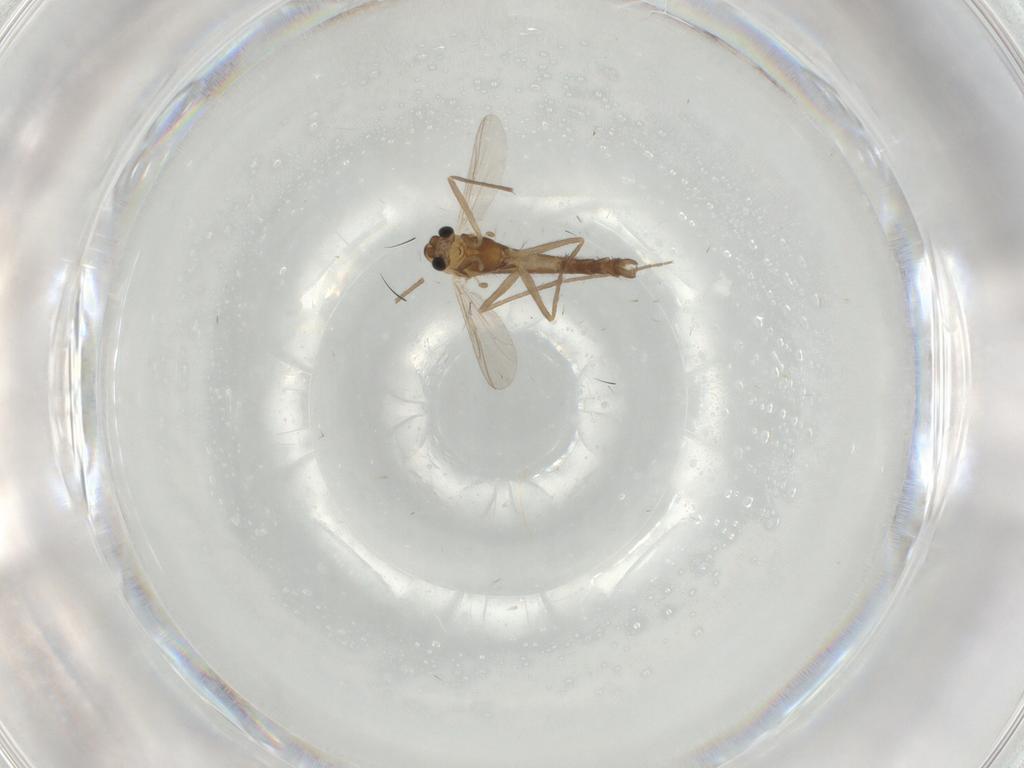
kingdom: Animalia
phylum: Arthropoda
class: Insecta
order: Diptera
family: Chironomidae
